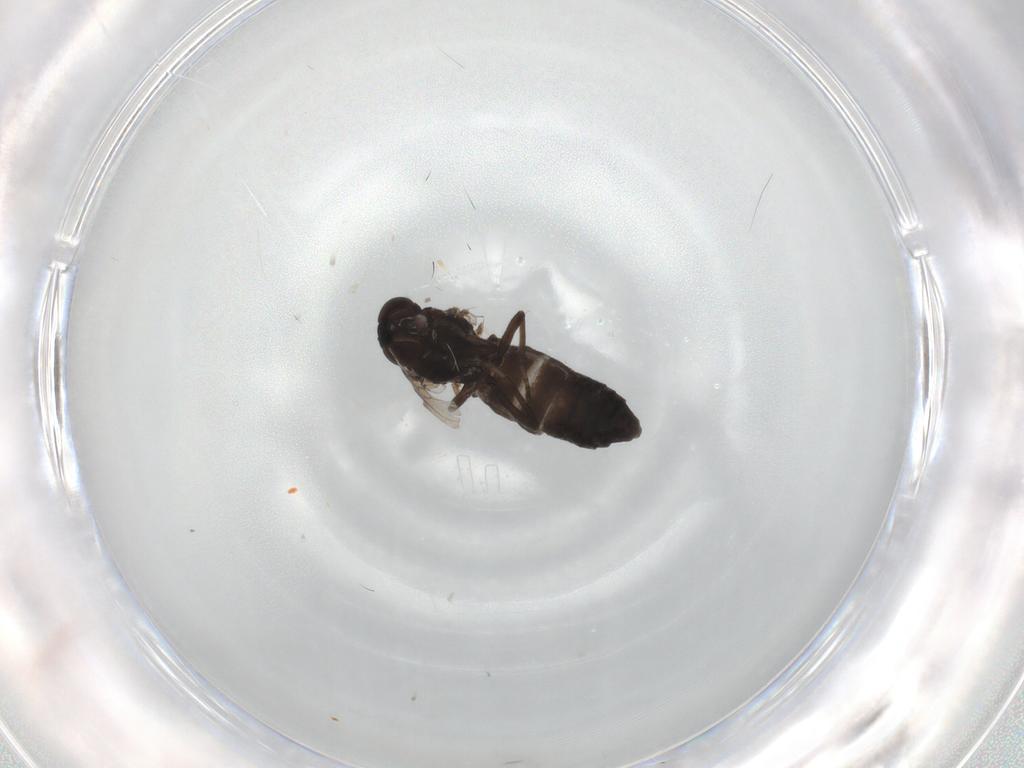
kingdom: Animalia
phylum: Arthropoda
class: Insecta
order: Diptera
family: Scenopinidae
